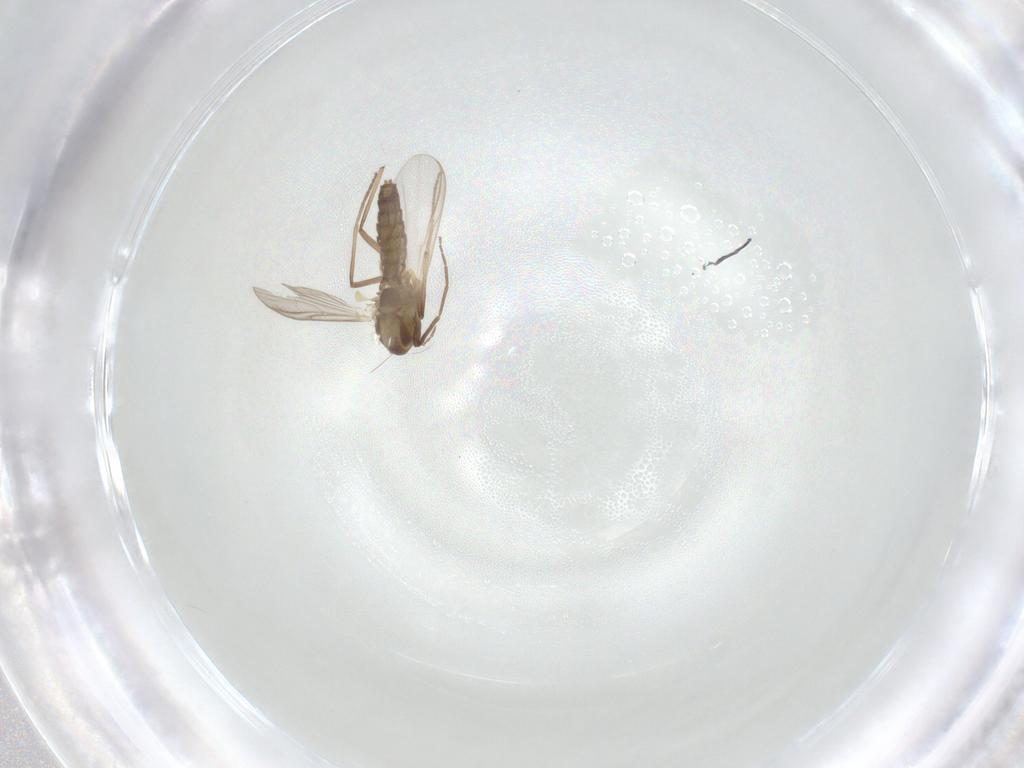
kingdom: Animalia
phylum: Arthropoda
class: Insecta
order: Diptera
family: Chironomidae
